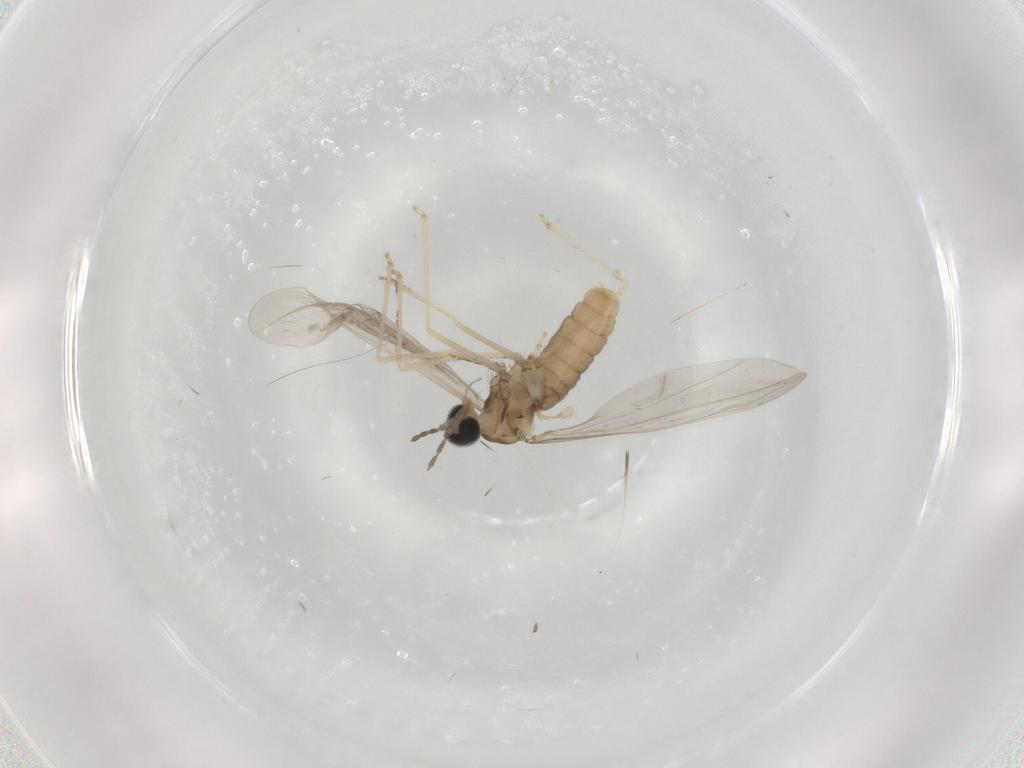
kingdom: Animalia
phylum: Arthropoda
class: Insecta
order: Diptera
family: Cecidomyiidae
